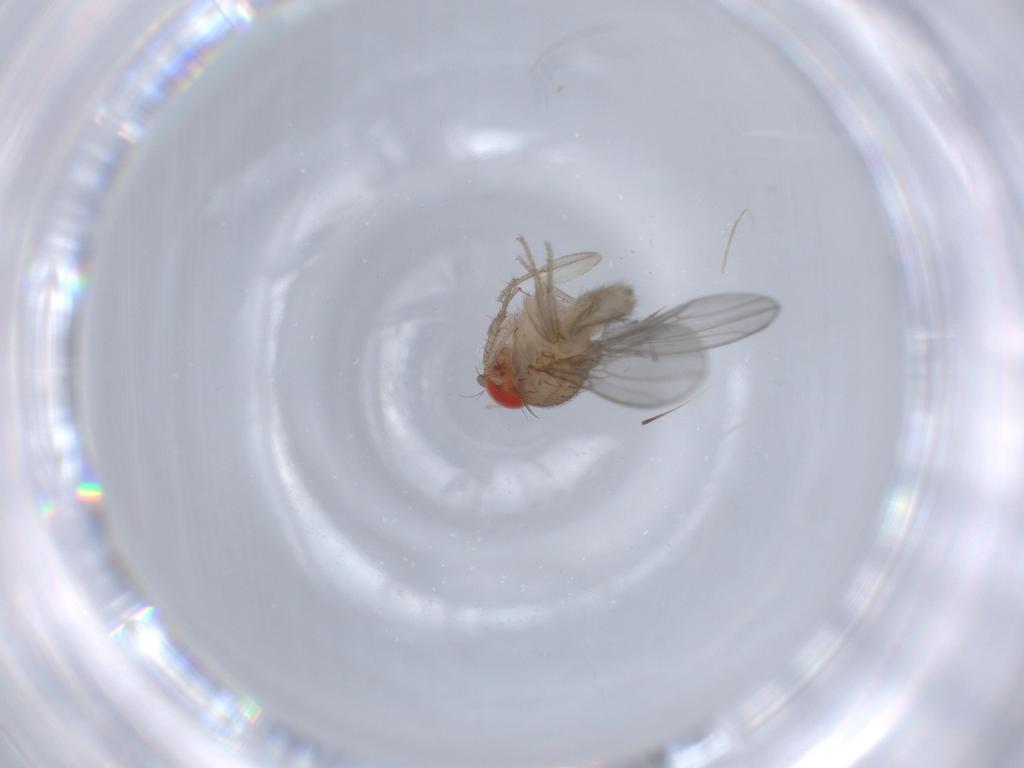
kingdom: Animalia
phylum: Arthropoda
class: Insecta
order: Diptera
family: Drosophilidae
